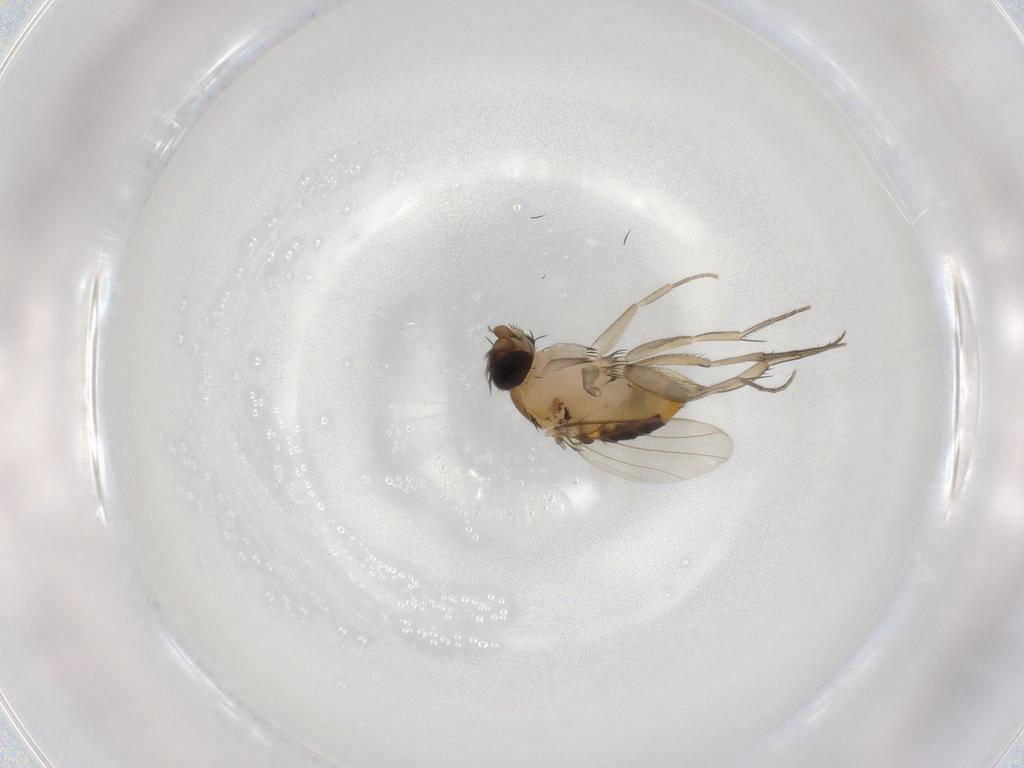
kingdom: Animalia
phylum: Arthropoda
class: Insecta
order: Diptera
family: Phoridae
